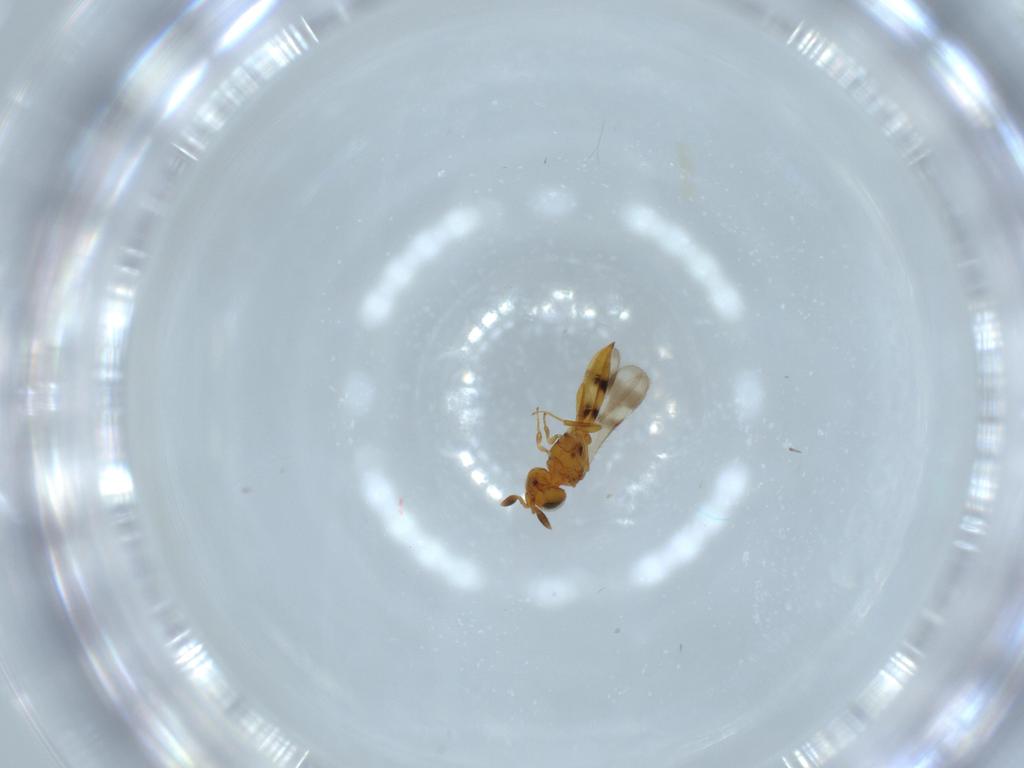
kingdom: Animalia
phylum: Arthropoda
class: Insecta
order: Hymenoptera
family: Scelionidae
